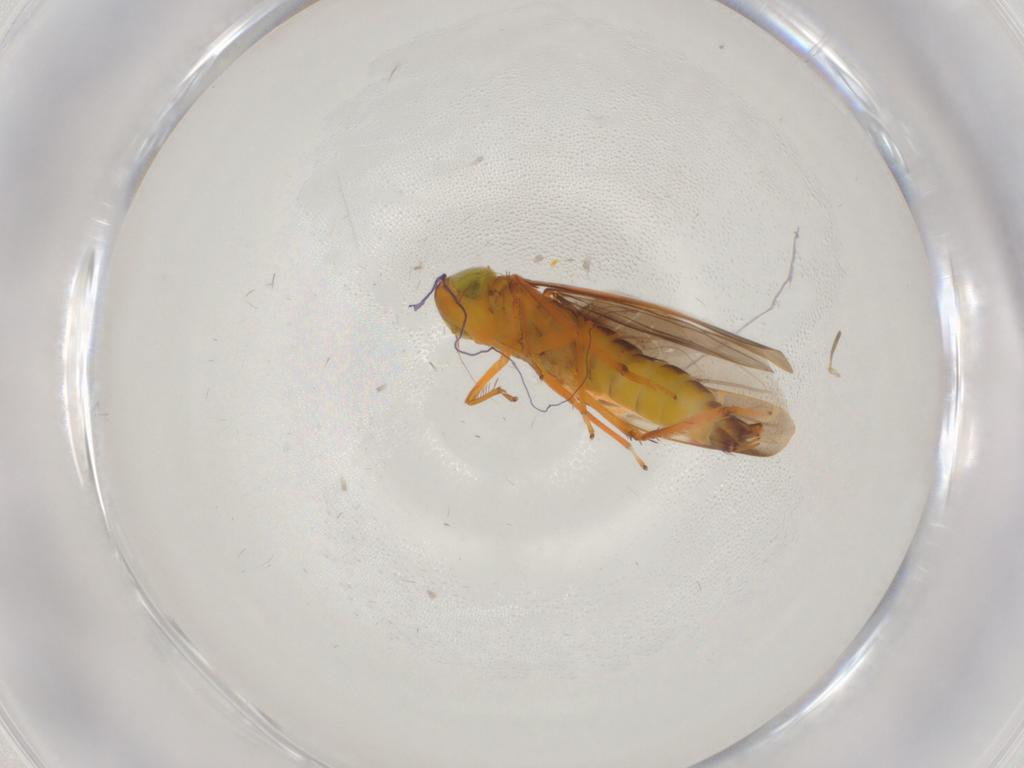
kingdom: Animalia
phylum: Arthropoda
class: Insecta
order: Hemiptera
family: Cicadellidae
